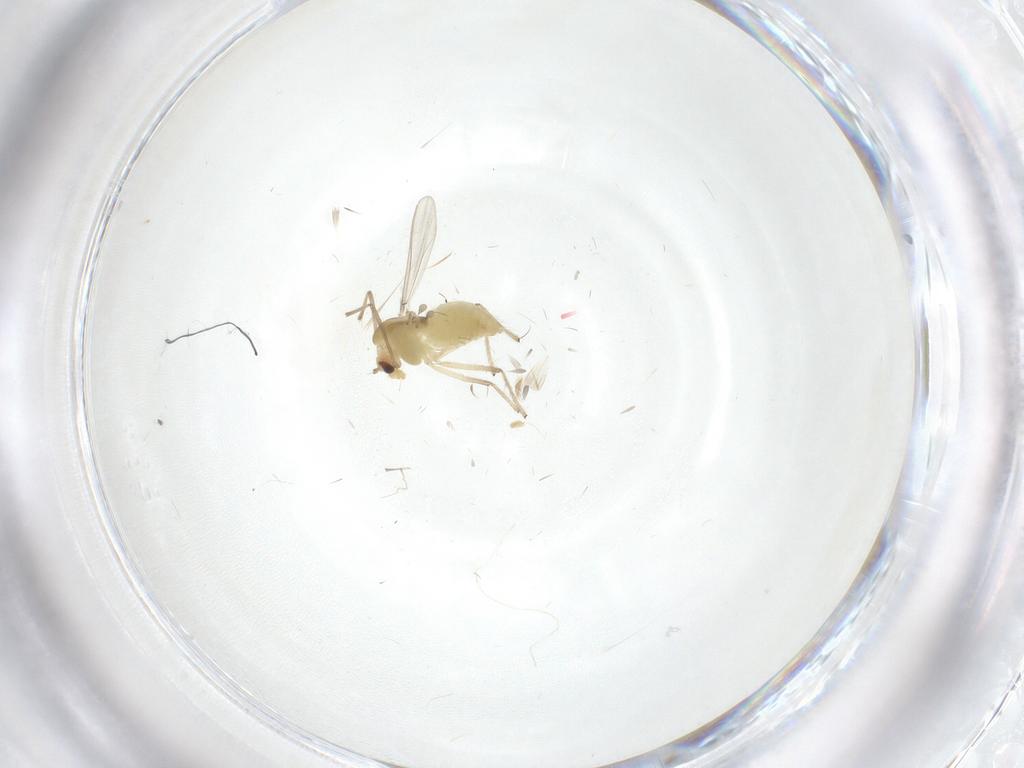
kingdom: Animalia
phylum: Arthropoda
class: Insecta
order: Diptera
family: Chironomidae
